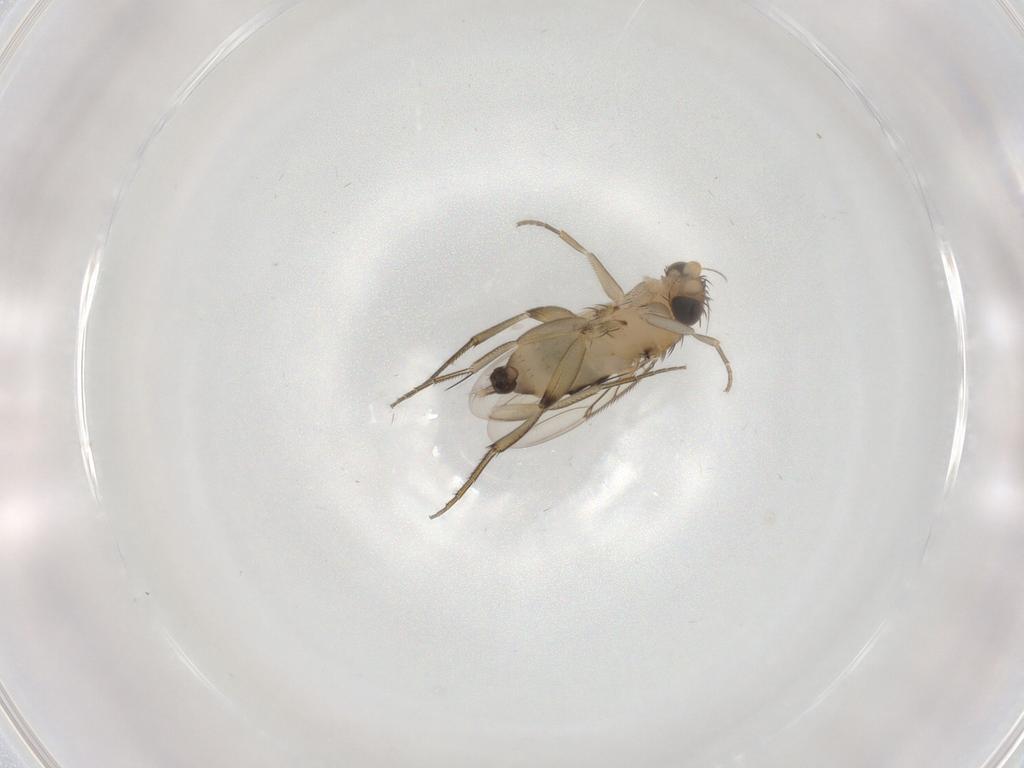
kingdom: Animalia
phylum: Arthropoda
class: Insecta
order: Diptera
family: Phoridae
